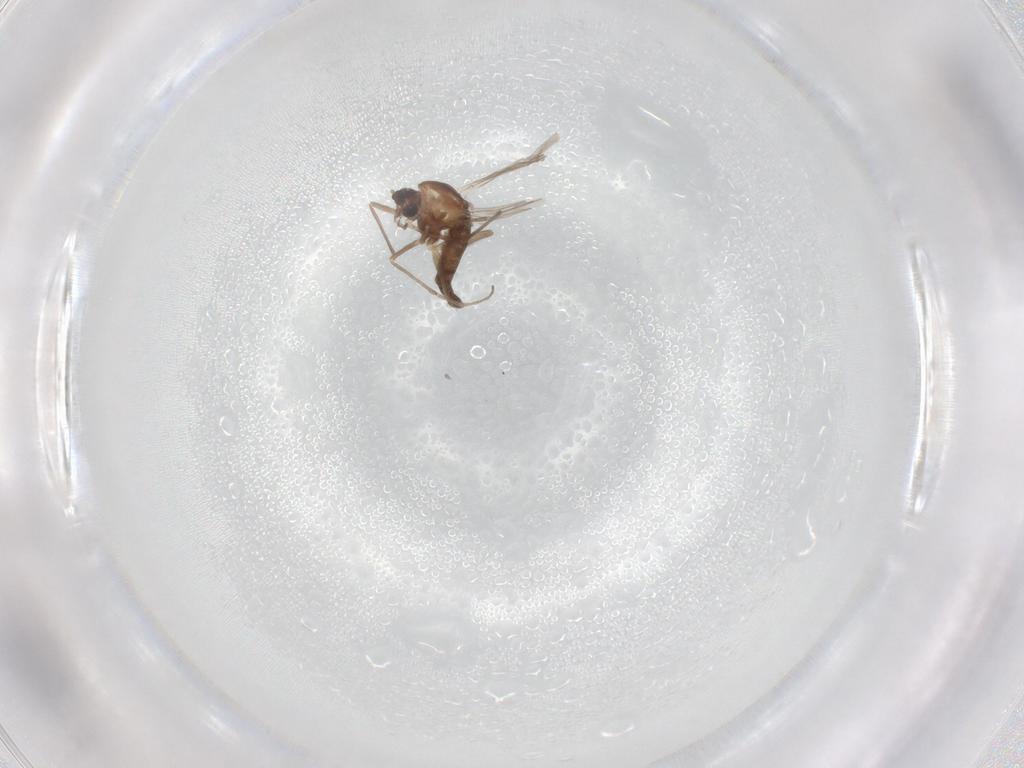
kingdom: Animalia
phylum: Arthropoda
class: Insecta
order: Diptera
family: Chironomidae
